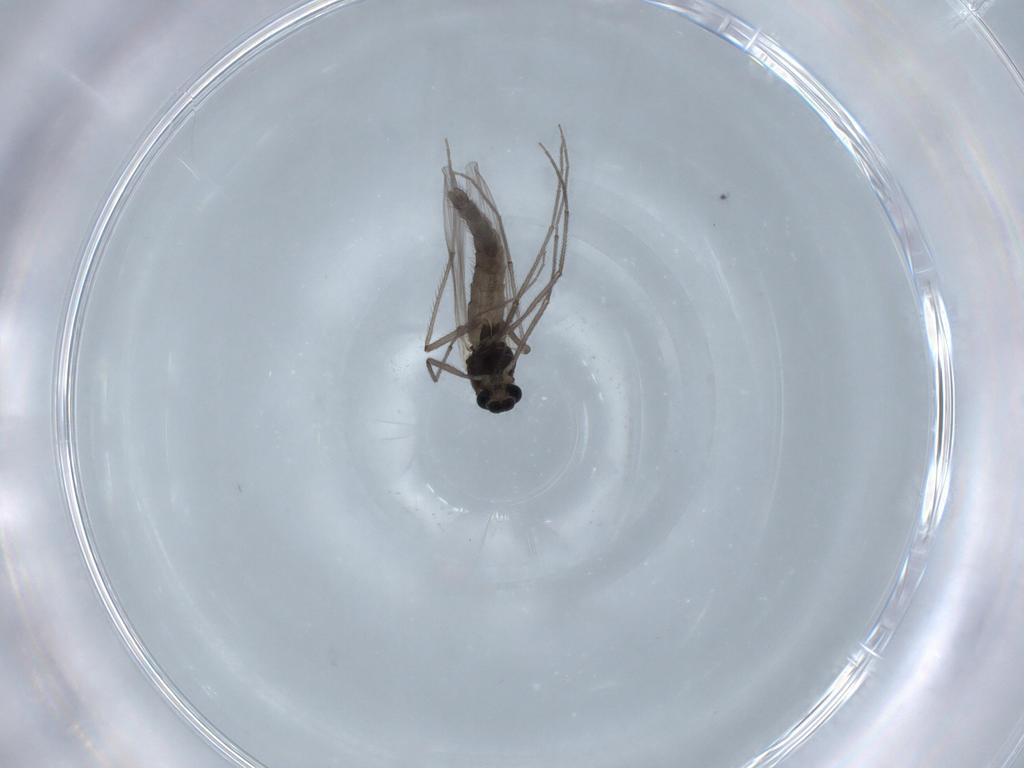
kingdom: Animalia
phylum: Arthropoda
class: Insecta
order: Diptera
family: Chironomidae
